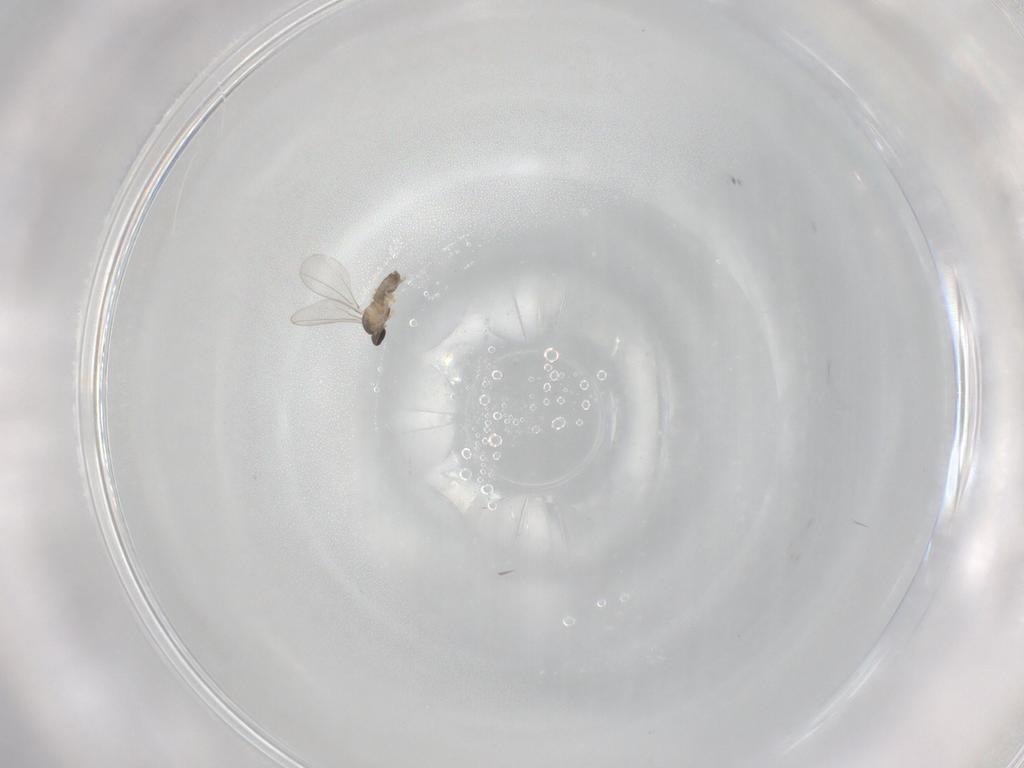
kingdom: Animalia
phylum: Arthropoda
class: Insecta
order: Diptera
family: Cecidomyiidae
